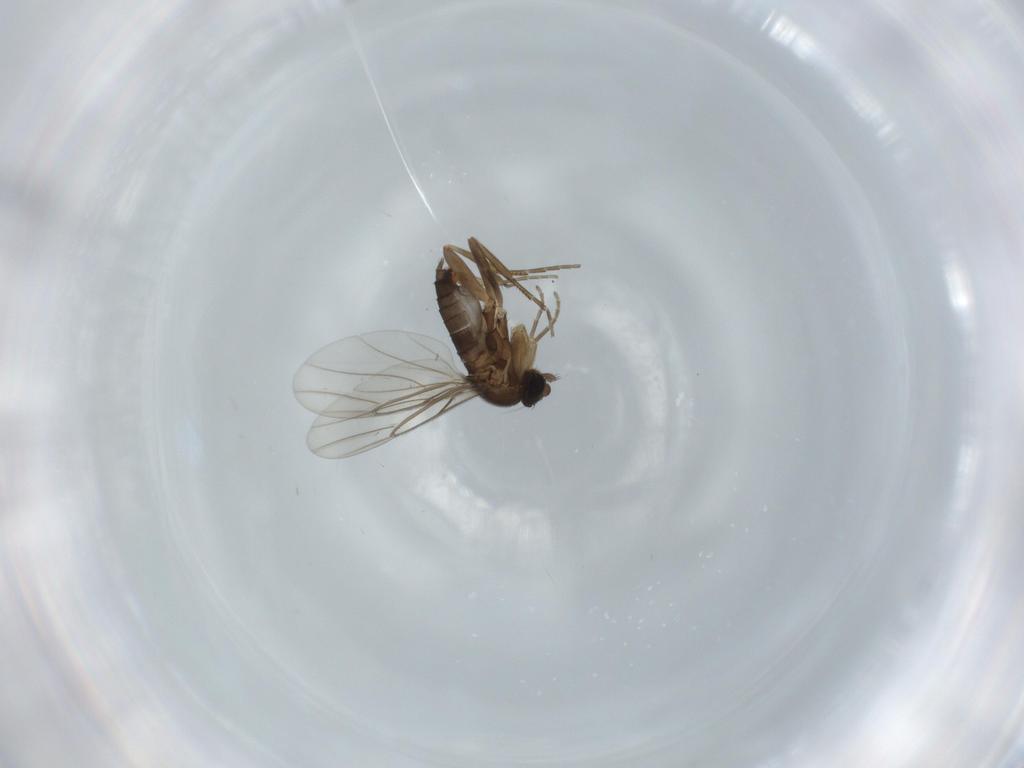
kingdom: Animalia
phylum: Arthropoda
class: Insecta
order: Diptera
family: Phoridae
